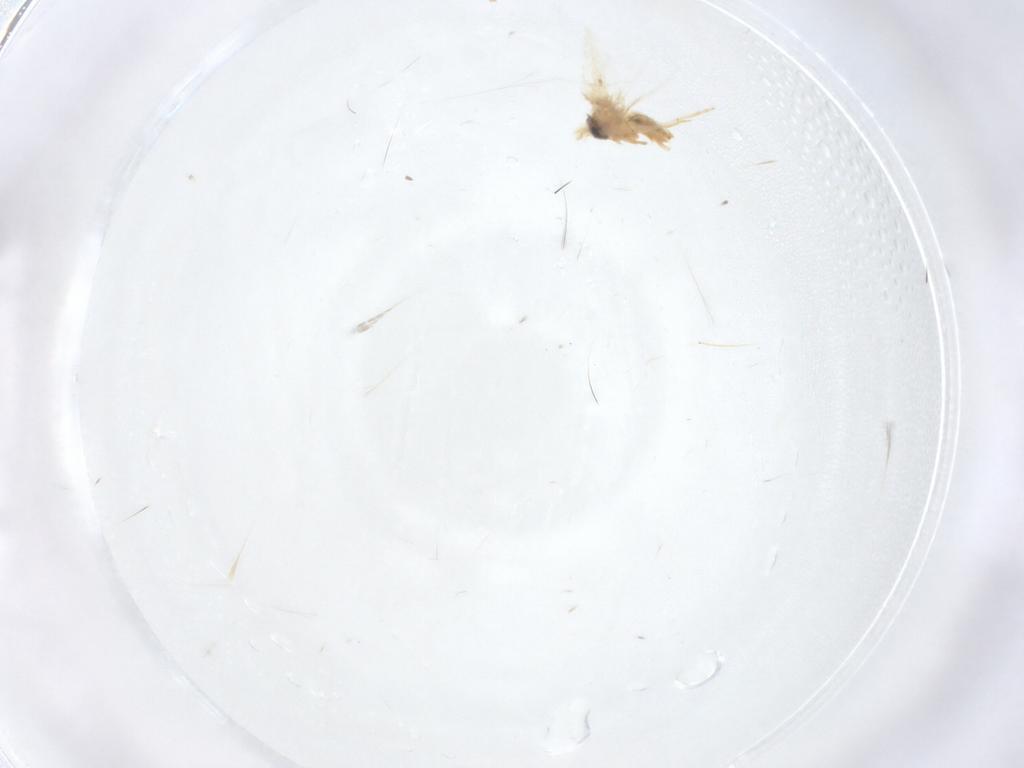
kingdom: Animalia
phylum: Arthropoda
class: Insecta
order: Lepidoptera
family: Crambidae
